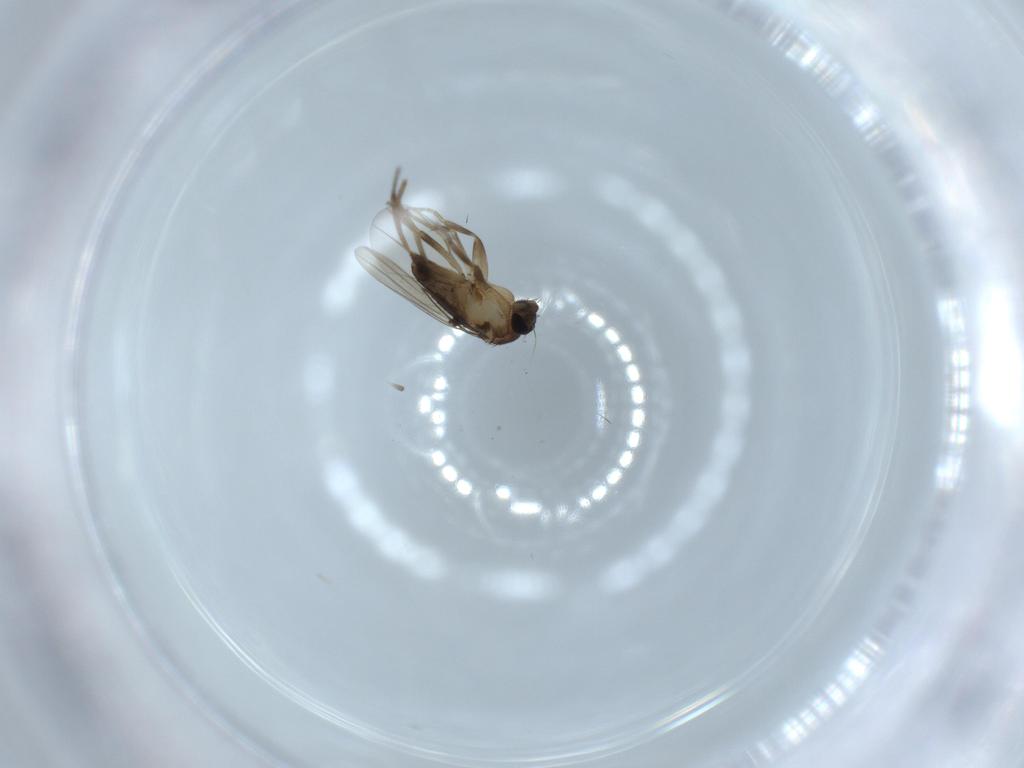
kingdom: Animalia
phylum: Arthropoda
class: Insecta
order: Diptera
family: Phoridae
